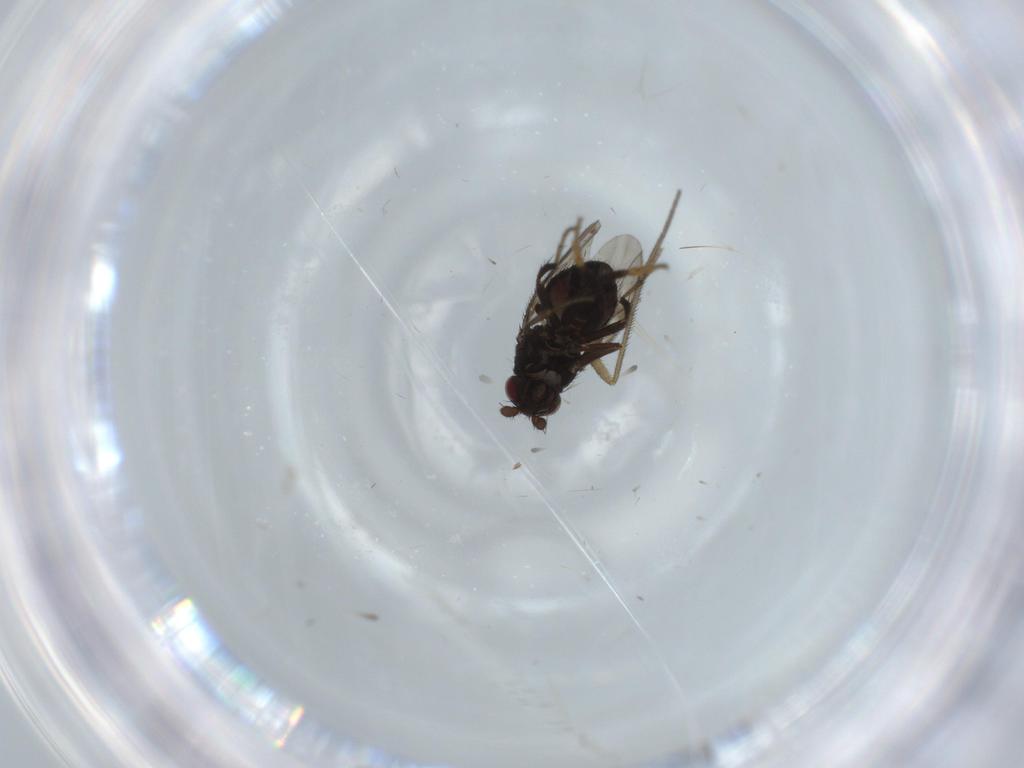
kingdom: Animalia
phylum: Arthropoda
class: Insecta
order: Diptera
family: Sphaeroceridae
